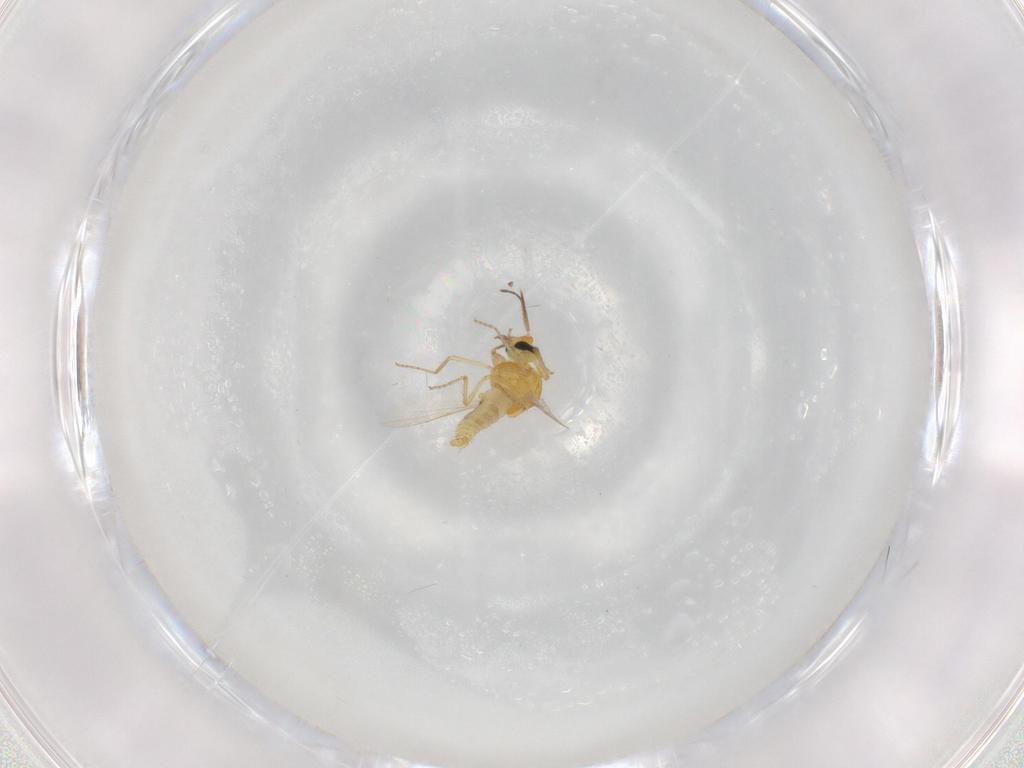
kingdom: Animalia
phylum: Arthropoda
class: Insecta
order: Diptera
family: Ceratopogonidae
